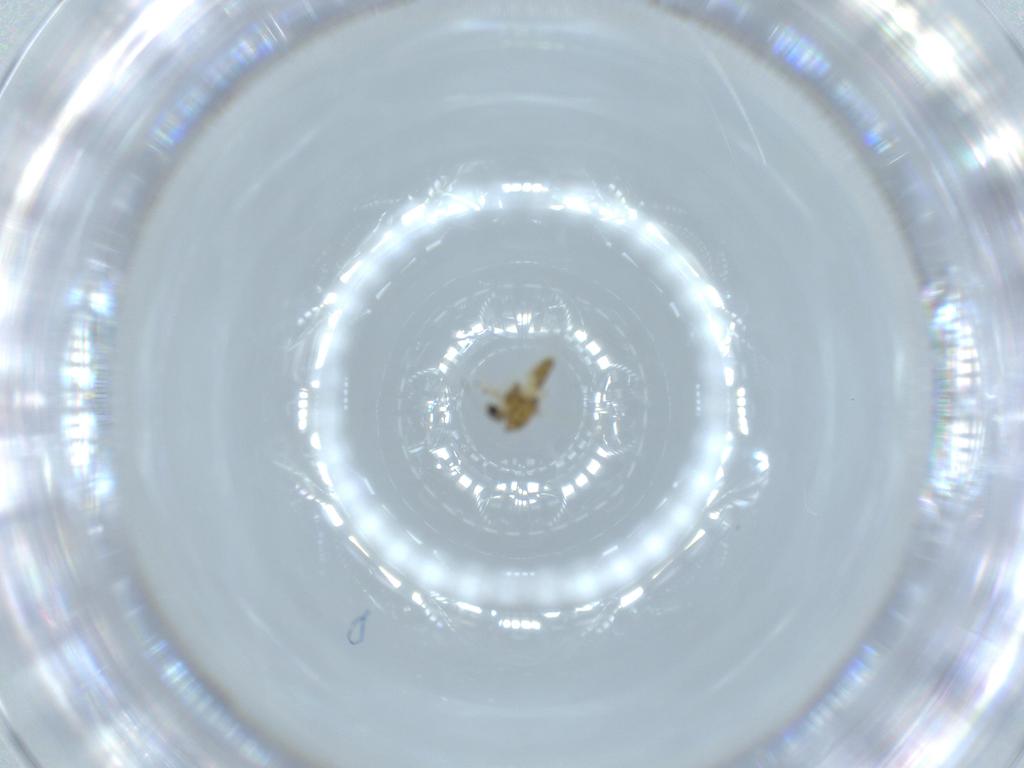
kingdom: Animalia
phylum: Arthropoda
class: Insecta
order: Diptera
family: Chironomidae
